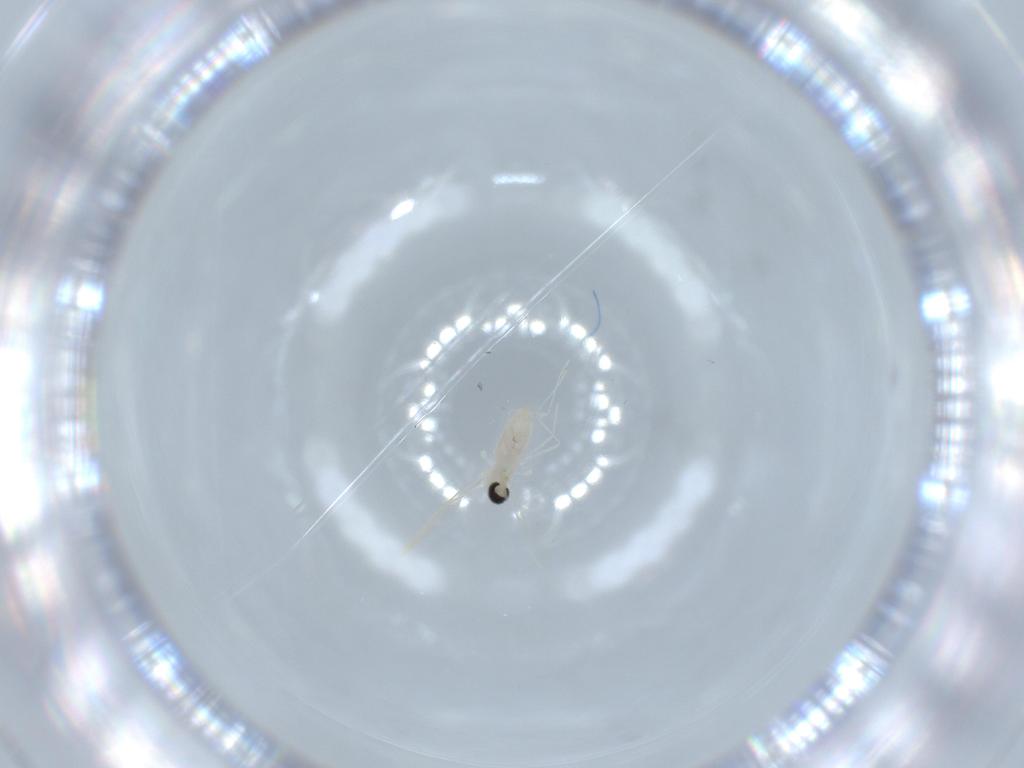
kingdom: Animalia
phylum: Arthropoda
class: Insecta
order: Diptera
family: Cecidomyiidae
